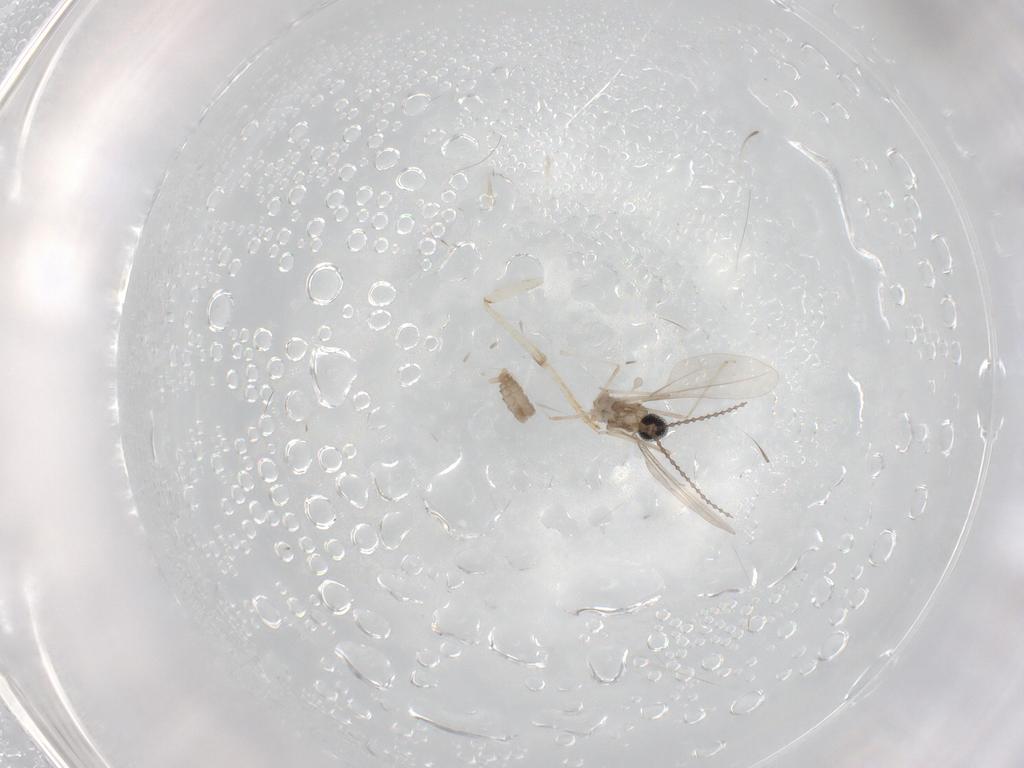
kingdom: Animalia
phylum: Arthropoda
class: Insecta
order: Diptera
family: Psychodidae
